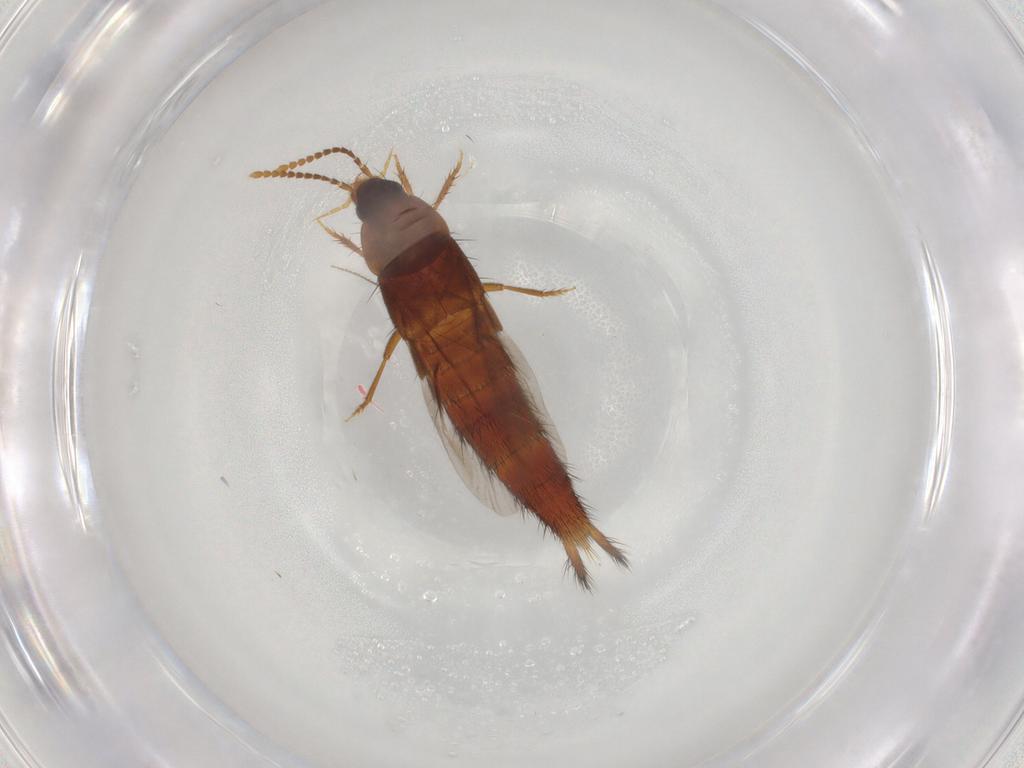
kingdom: Animalia
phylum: Arthropoda
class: Insecta
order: Coleoptera
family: Staphylinidae
